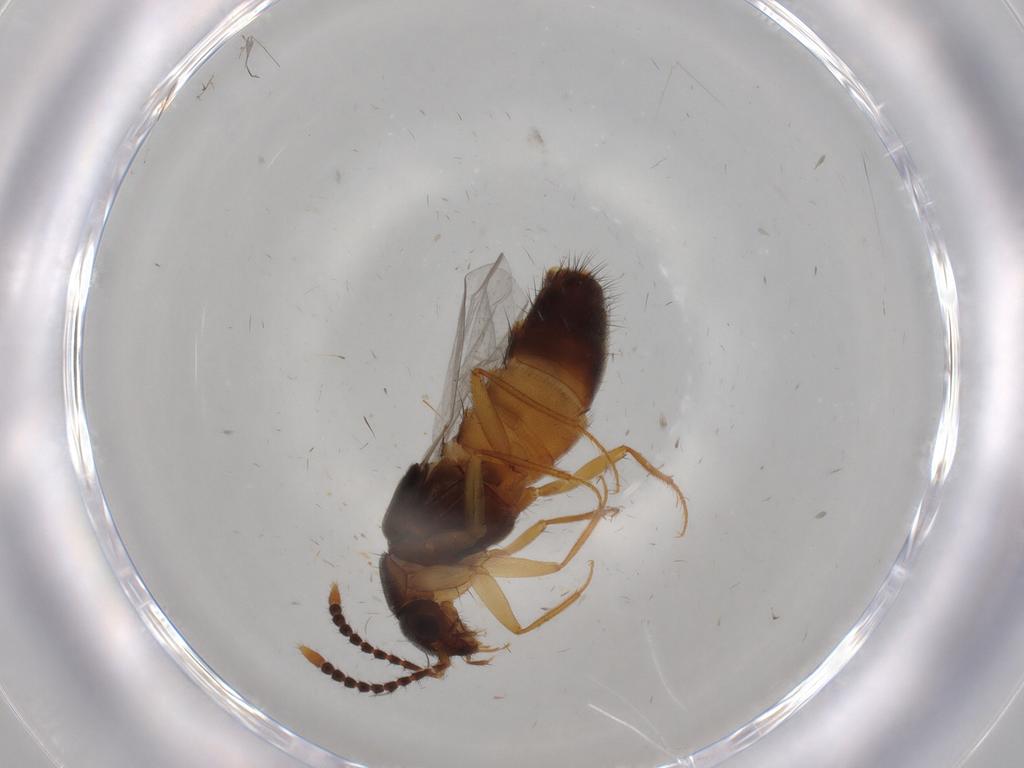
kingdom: Animalia
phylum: Arthropoda
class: Insecta
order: Coleoptera
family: Staphylinidae
